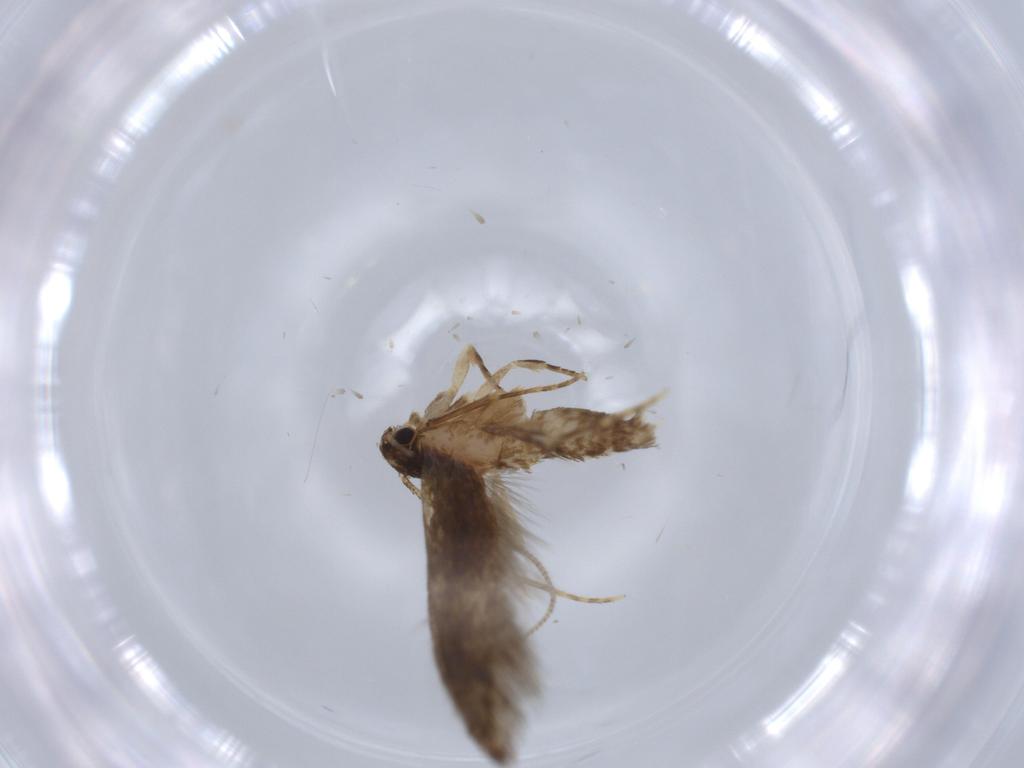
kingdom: Animalia
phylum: Arthropoda
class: Insecta
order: Lepidoptera
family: Tineidae
